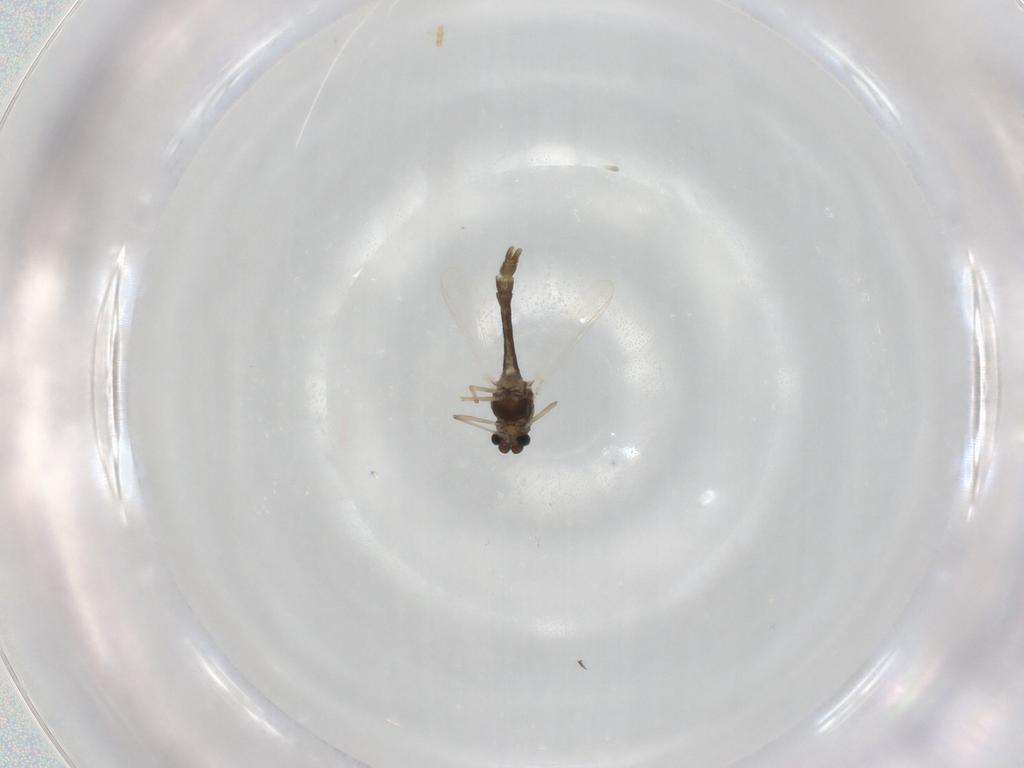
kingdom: Animalia
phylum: Arthropoda
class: Insecta
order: Diptera
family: Chironomidae
